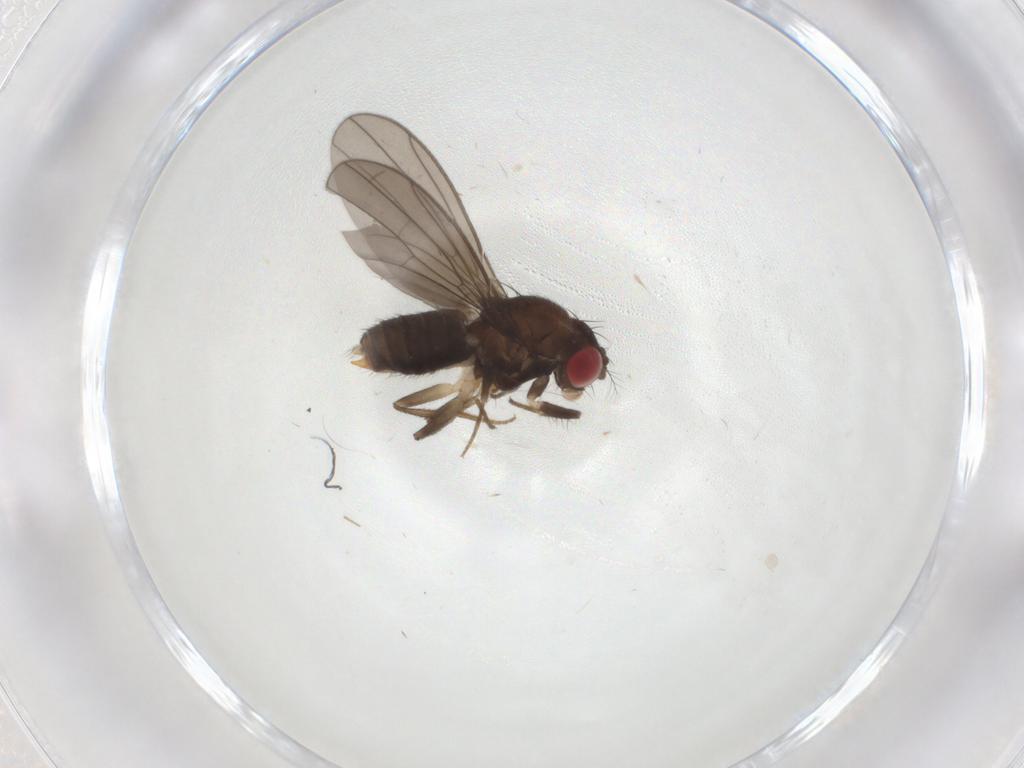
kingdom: Animalia
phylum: Arthropoda
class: Insecta
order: Diptera
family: Drosophilidae
